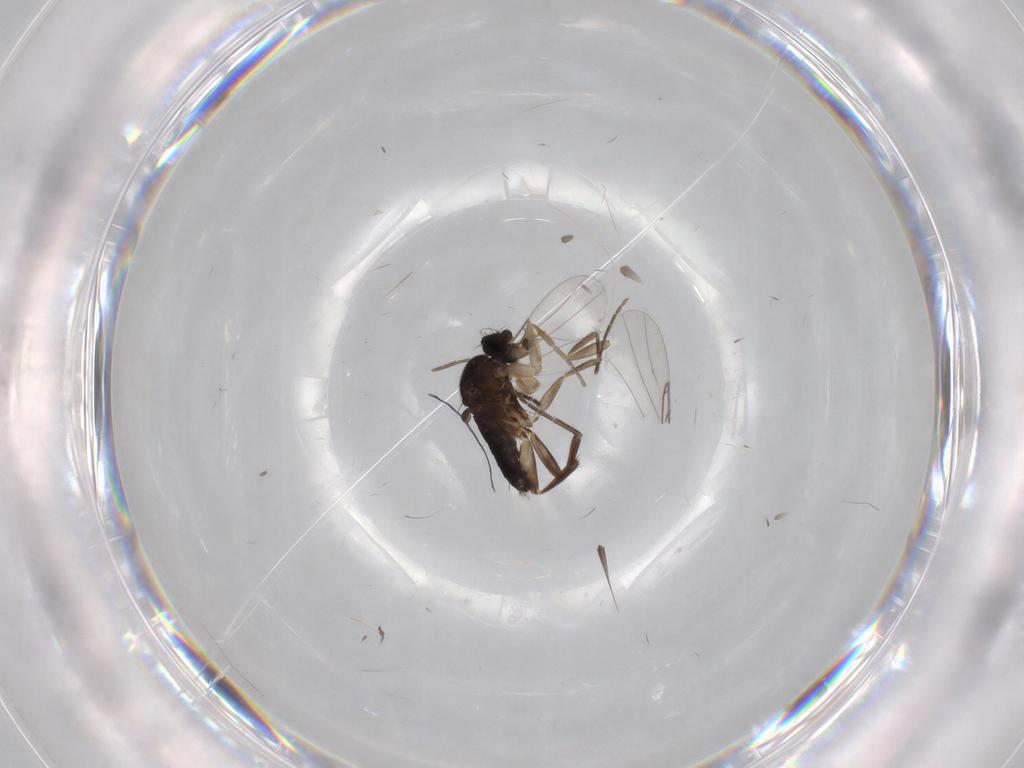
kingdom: Animalia
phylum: Arthropoda
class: Insecta
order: Diptera
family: Phoridae
